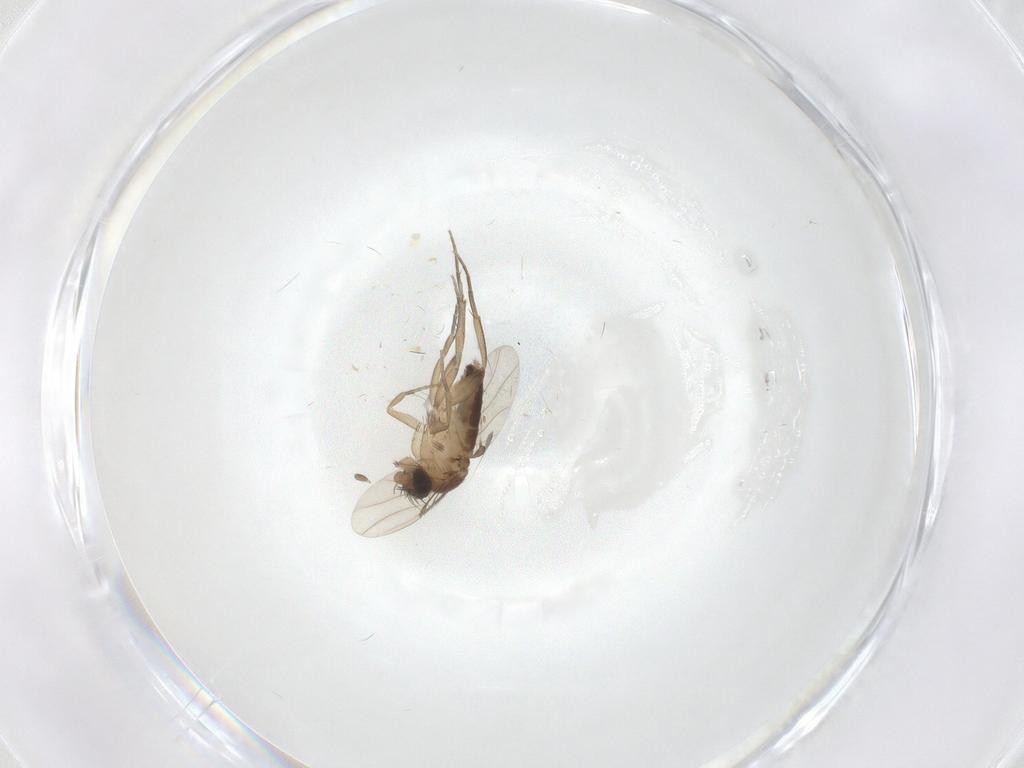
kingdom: Animalia
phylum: Arthropoda
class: Insecta
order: Diptera
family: Phoridae
